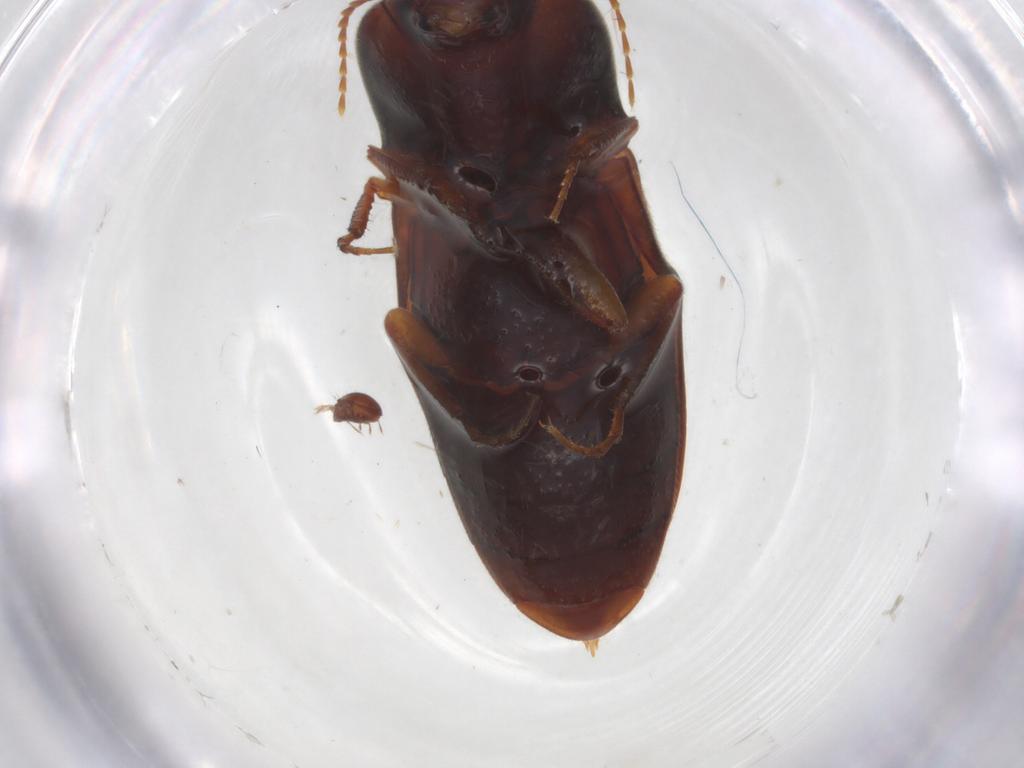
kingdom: Animalia
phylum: Arthropoda
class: Insecta
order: Coleoptera
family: Elateridae
